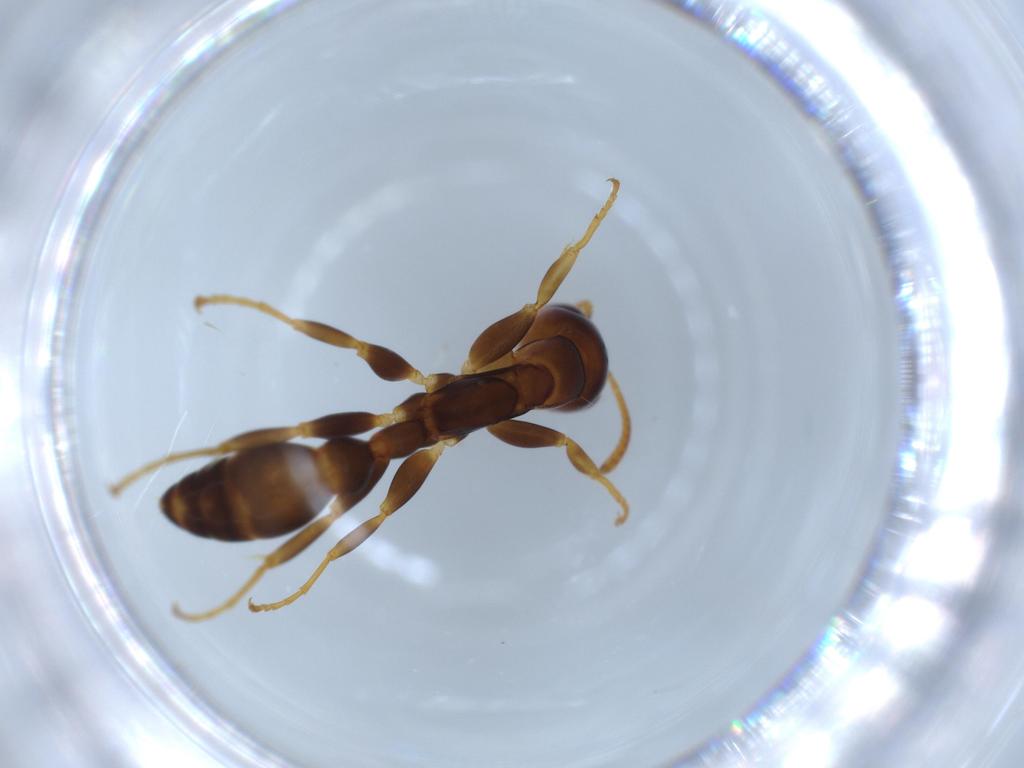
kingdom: Animalia
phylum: Arthropoda
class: Insecta
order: Hymenoptera
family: Formicidae
